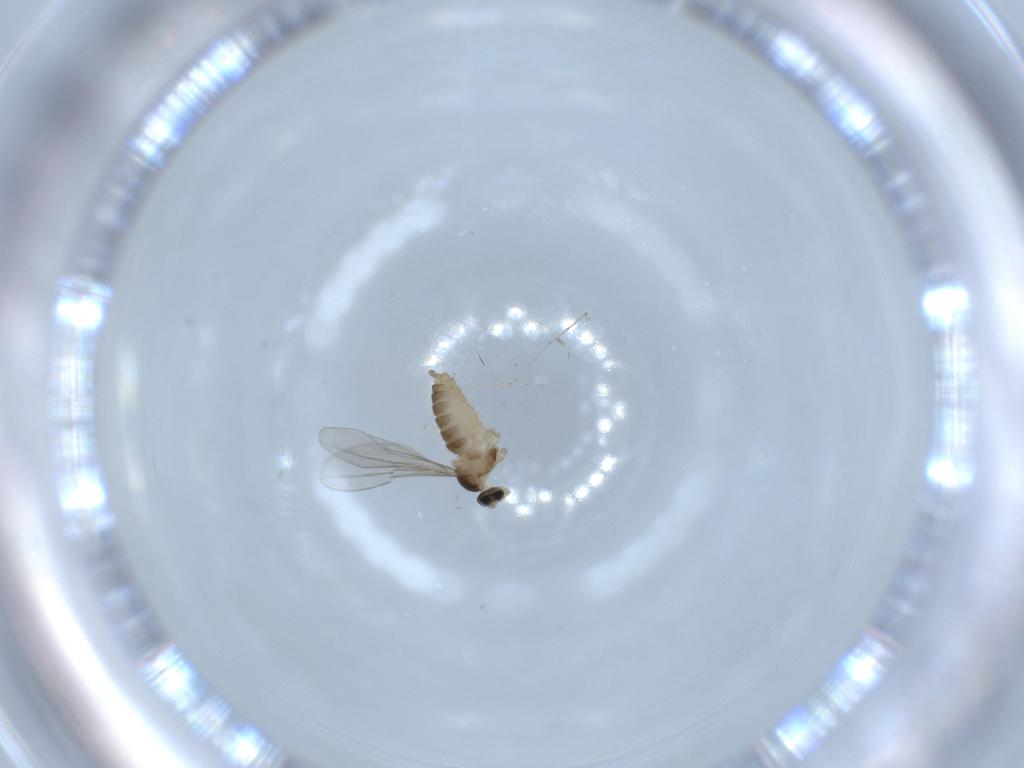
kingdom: Animalia
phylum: Arthropoda
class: Insecta
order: Diptera
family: Cecidomyiidae
